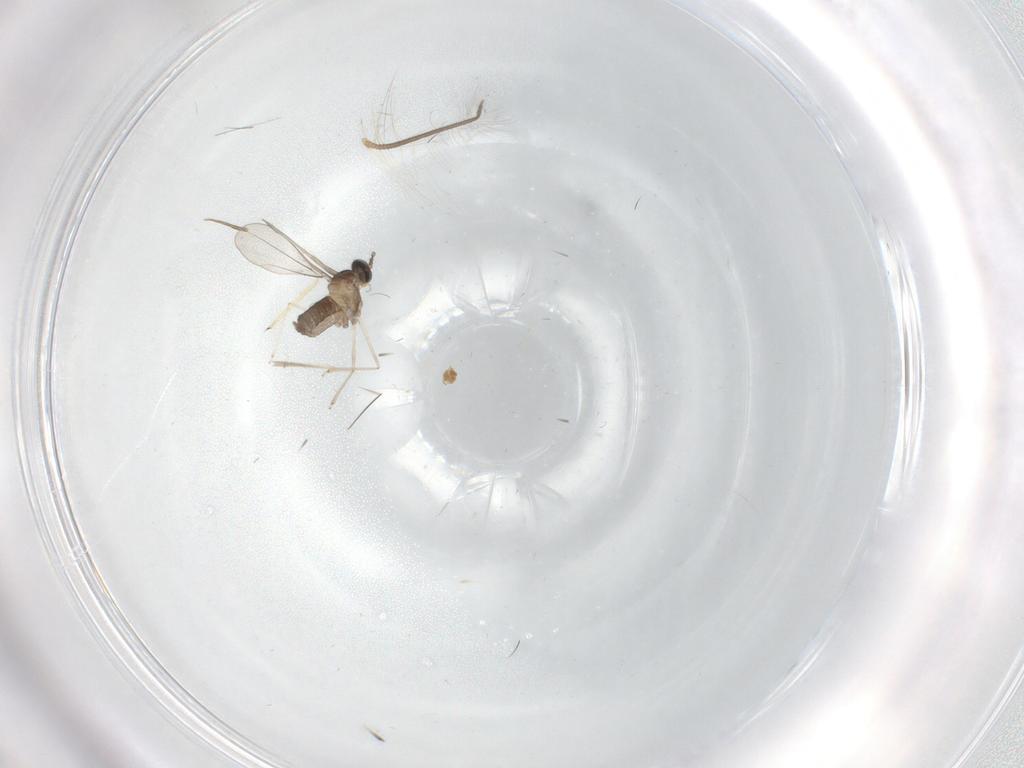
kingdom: Animalia
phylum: Arthropoda
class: Insecta
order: Diptera
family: Cecidomyiidae
